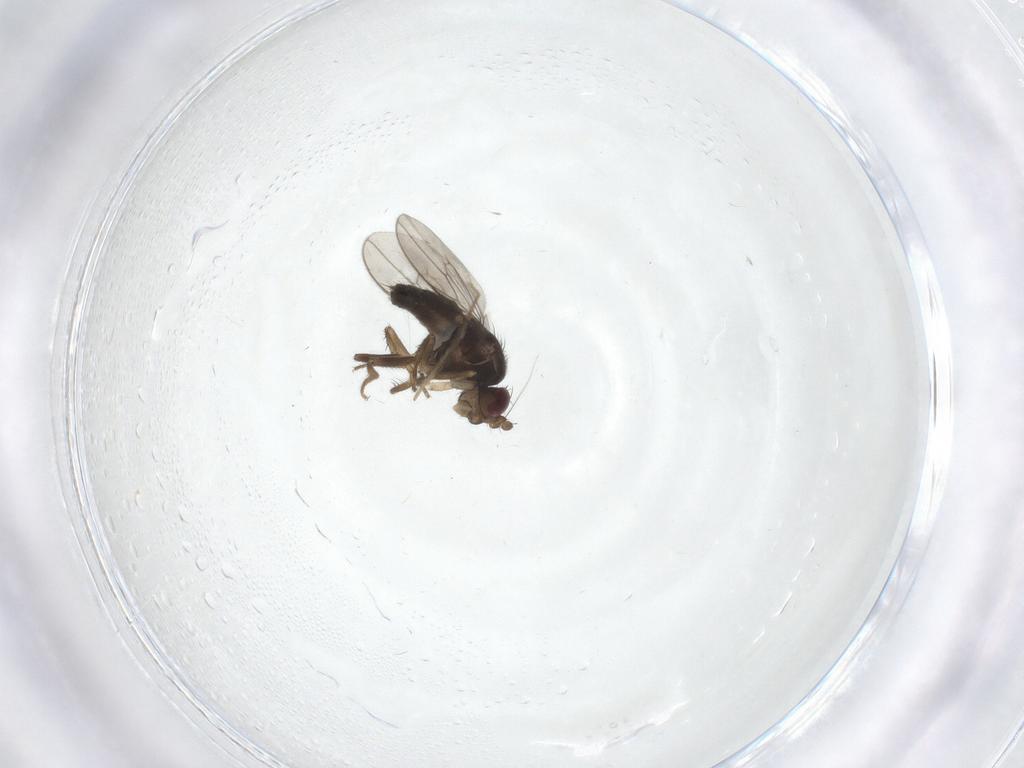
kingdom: Animalia
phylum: Arthropoda
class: Insecta
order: Diptera
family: Sphaeroceridae
